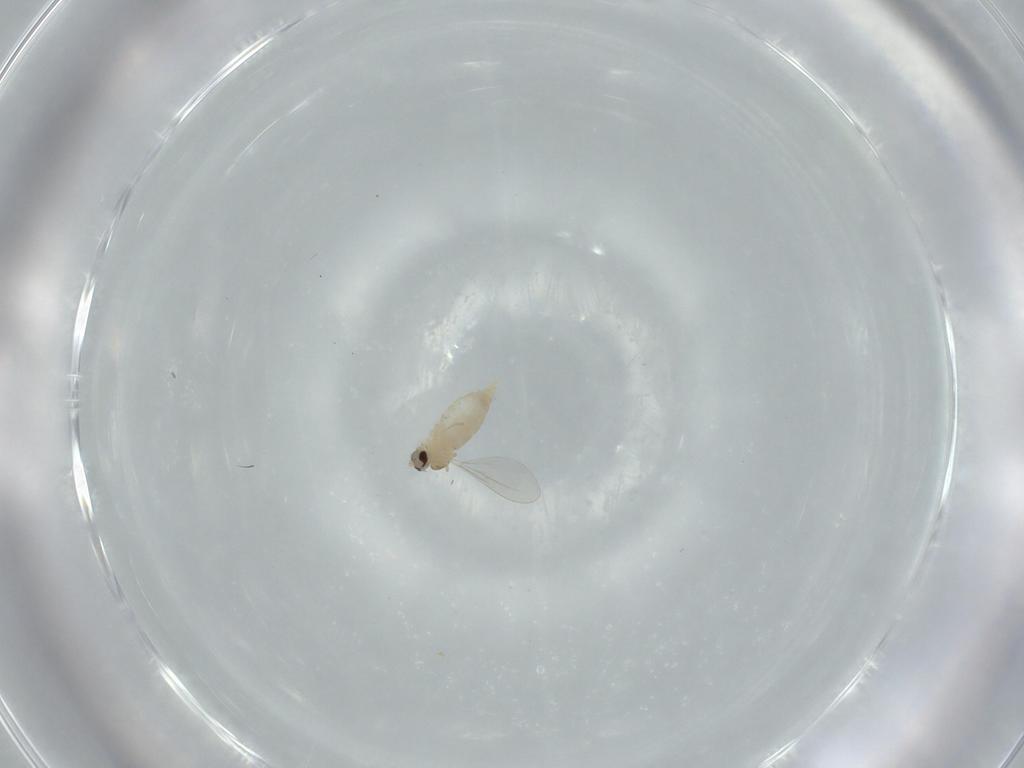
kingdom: Animalia
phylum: Arthropoda
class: Insecta
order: Diptera
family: Cecidomyiidae
